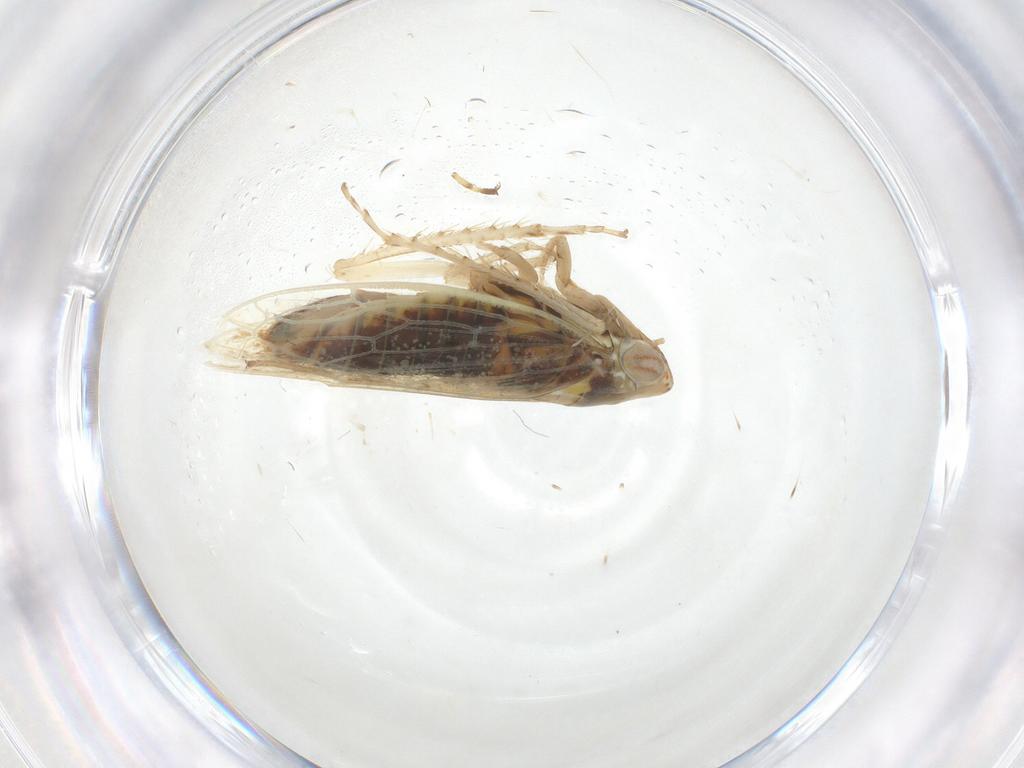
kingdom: Animalia
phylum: Arthropoda
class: Insecta
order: Hemiptera
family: Cicadellidae
